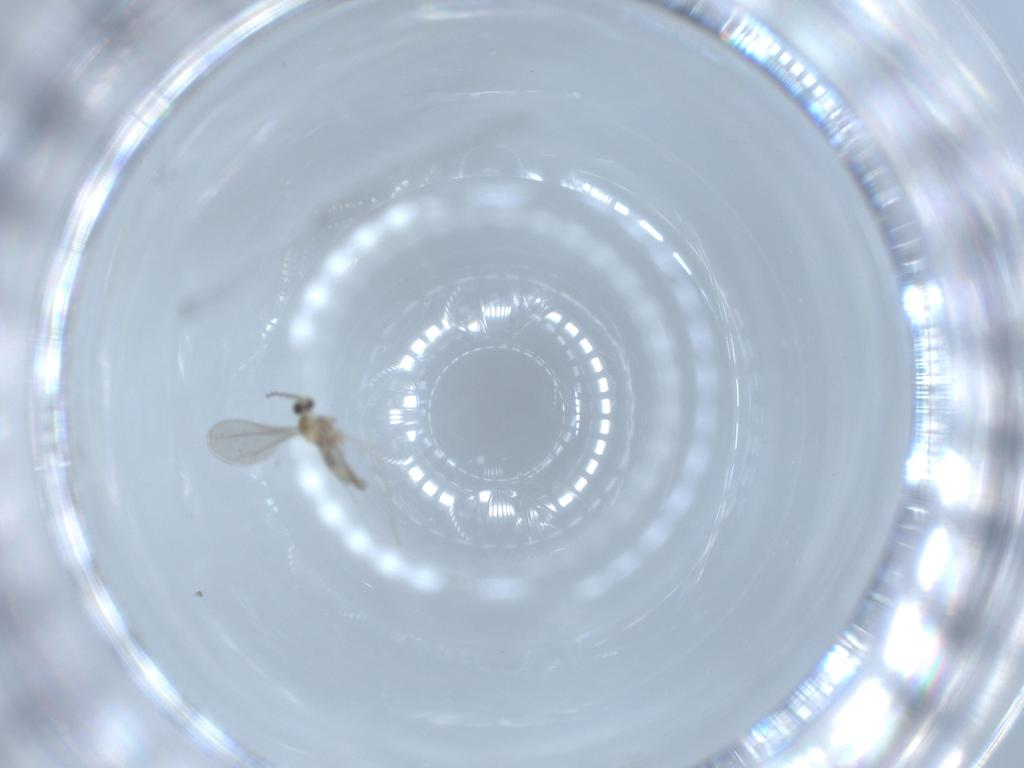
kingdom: Animalia
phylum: Arthropoda
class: Insecta
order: Diptera
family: Cecidomyiidae
